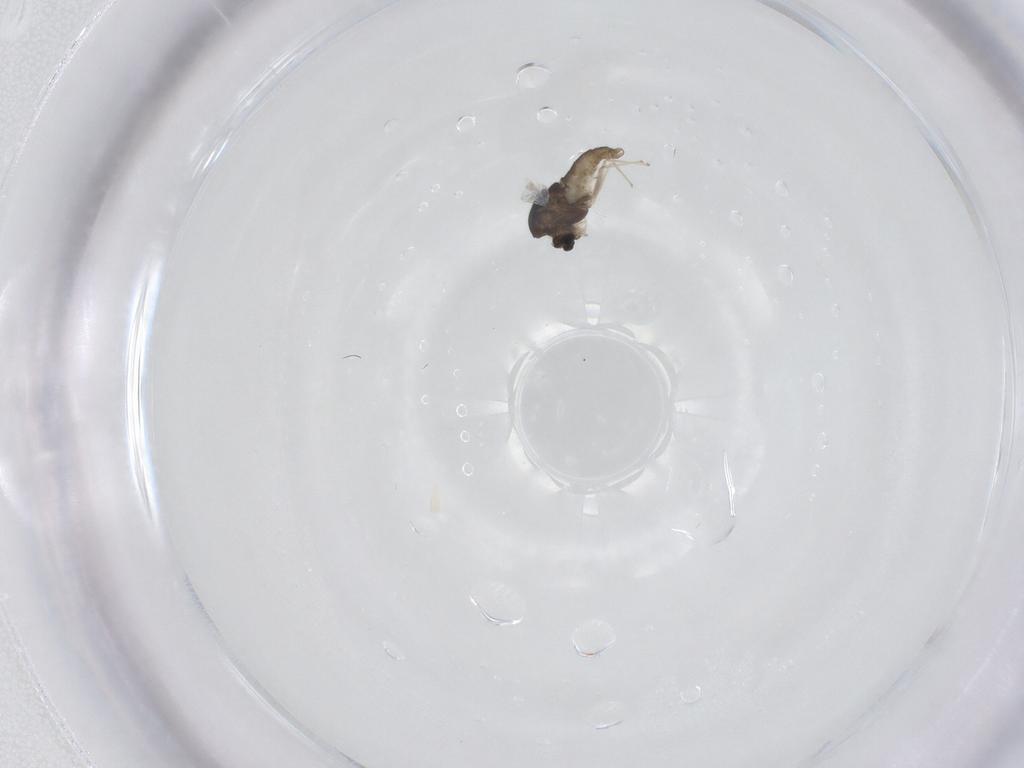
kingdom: Animalia
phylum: Arthropoda
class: Insecta
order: Diptera
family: Chironomidae
